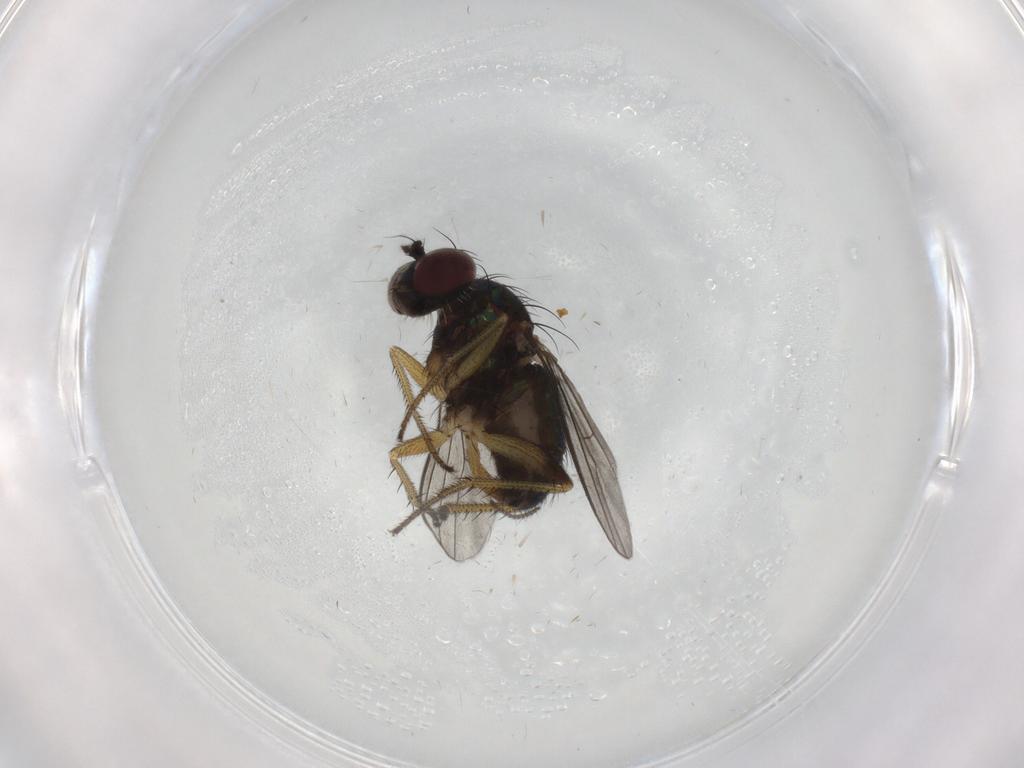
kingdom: Animalia
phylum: Arthropoda
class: Insecta
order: Diptera
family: Dolichopodidae
